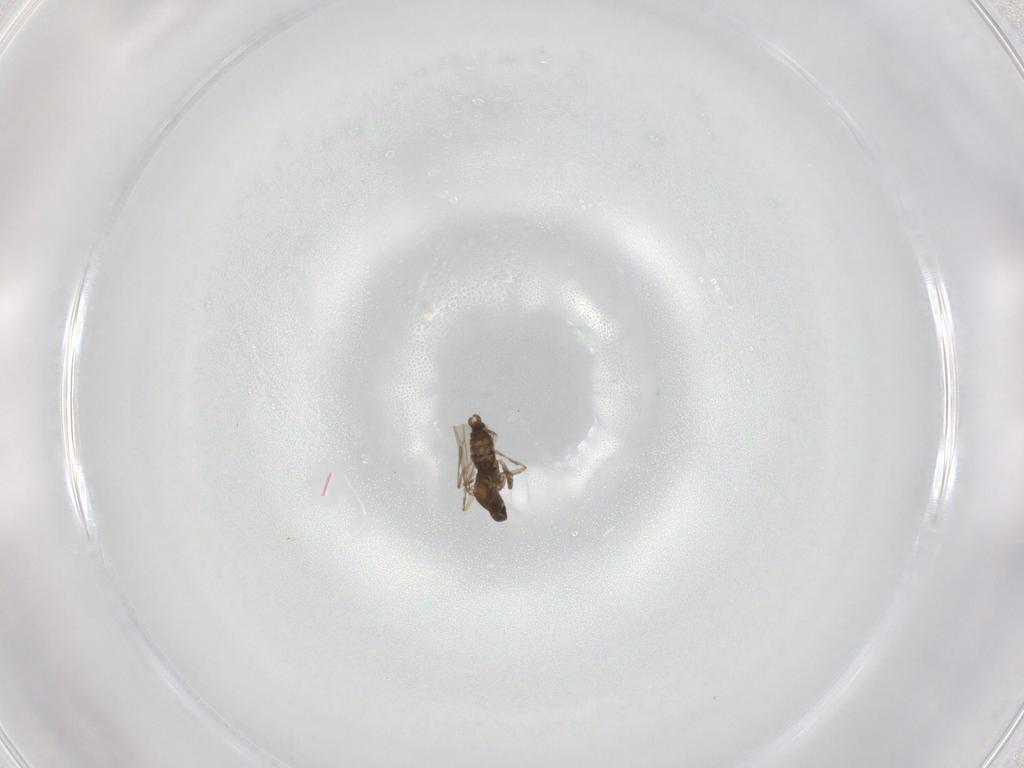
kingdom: Animalia
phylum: Arthropoda
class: Insecta
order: Diptera
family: Cecidomyiidae
